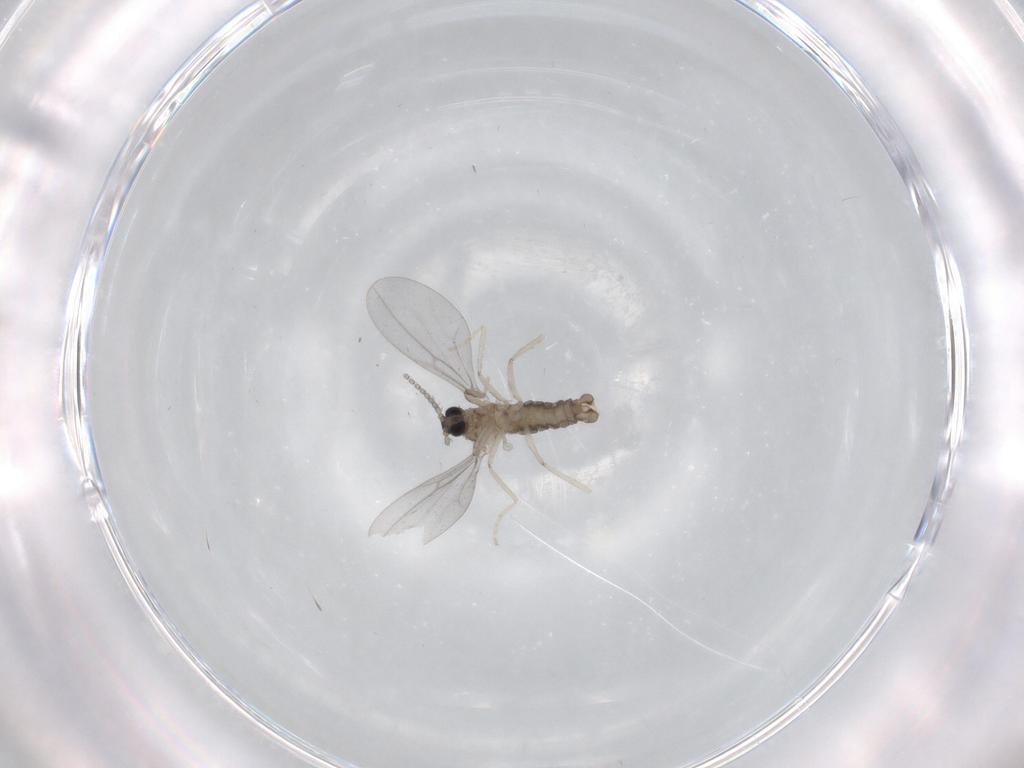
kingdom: Animalia
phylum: Arthropoda
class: Insecta
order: Diptera
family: Cecidomyiidae
